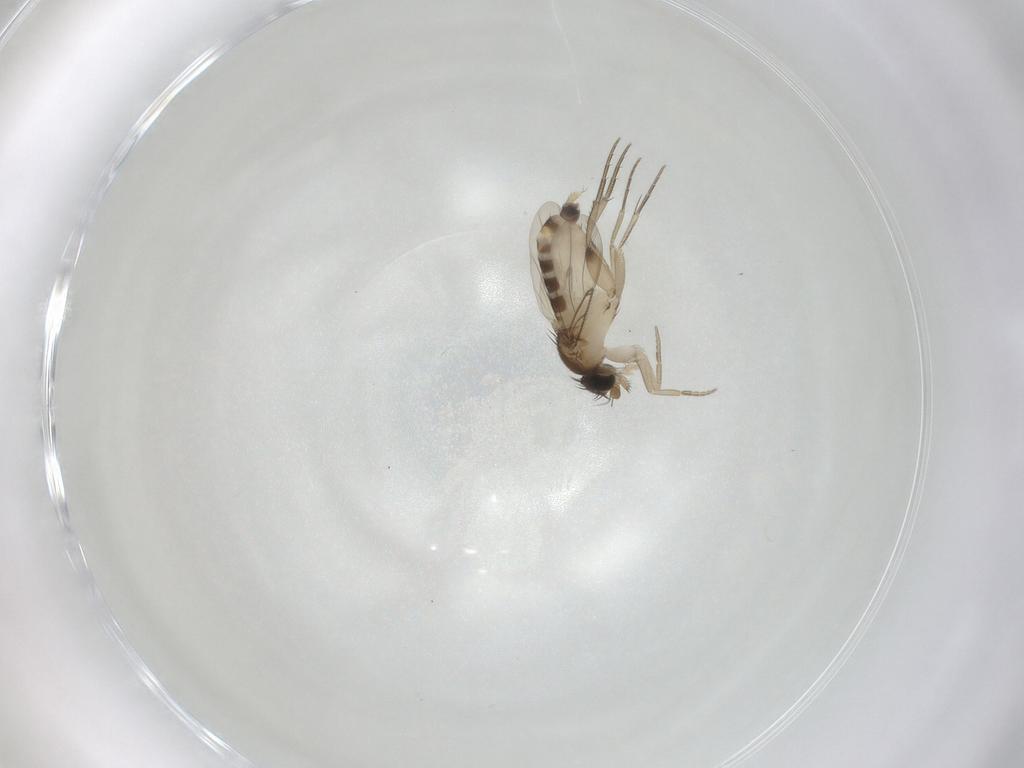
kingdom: Animalia
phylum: Arthropoda
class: Insecta
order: Diptera
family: Phoridae
